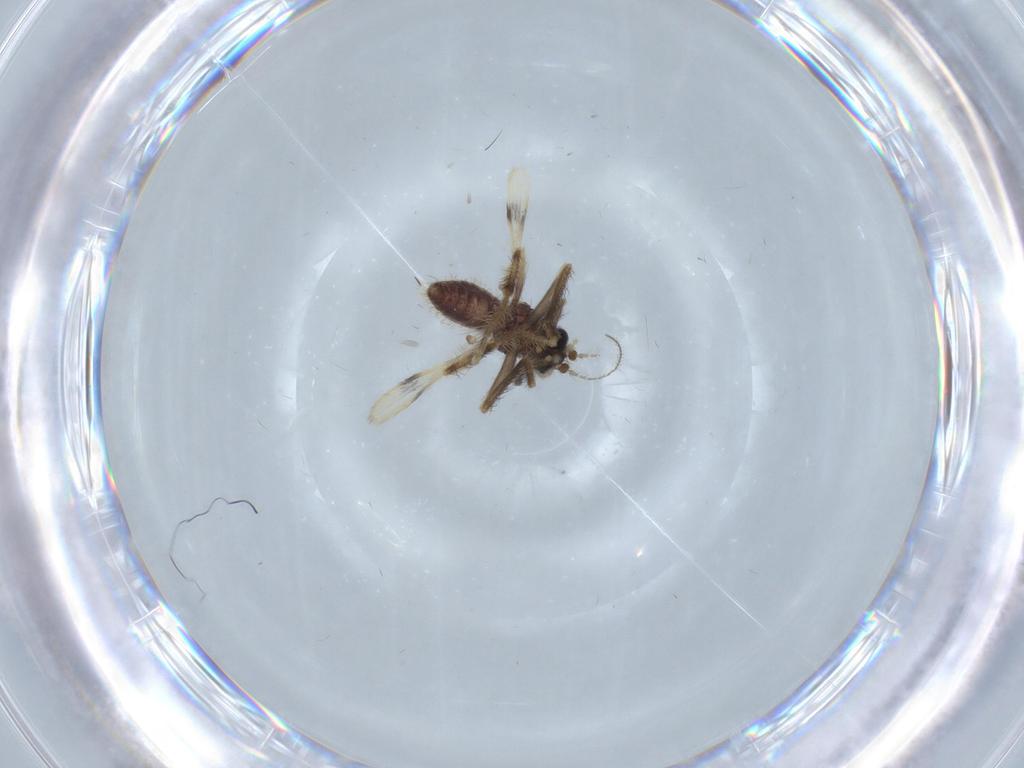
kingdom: Animalia
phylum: Arthropoda
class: Insecta
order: Diptera
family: Corethrellidae
